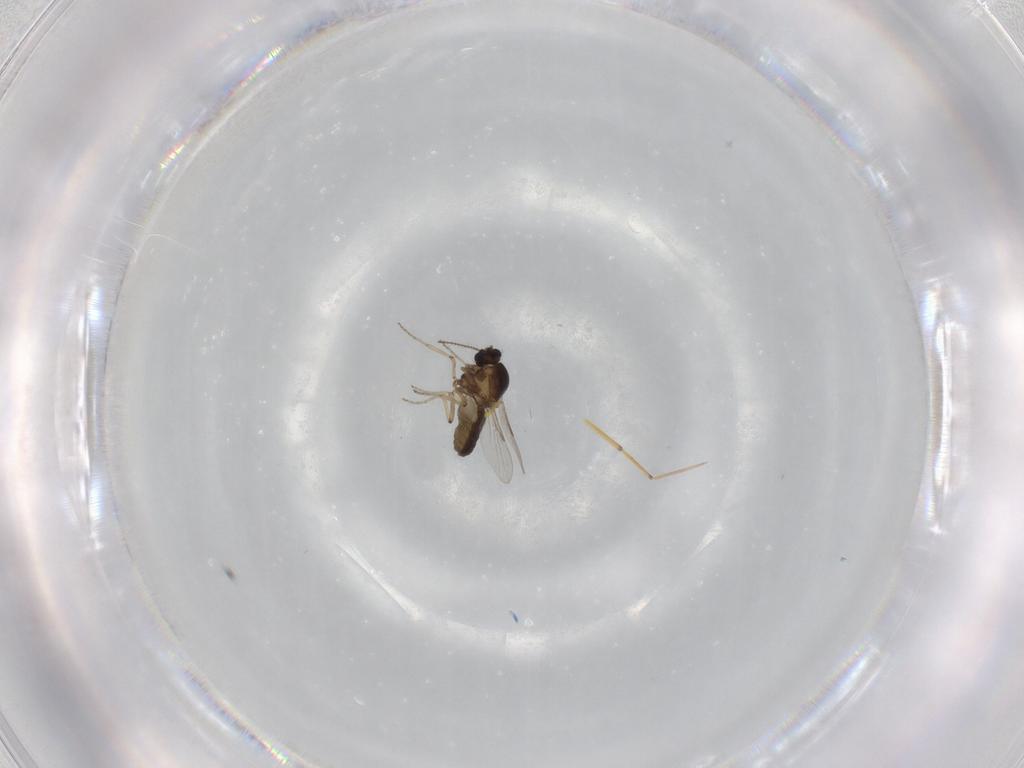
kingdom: Animalia
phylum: Arthropoda
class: Insecta
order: Diptera
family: Ceratopogonidae
